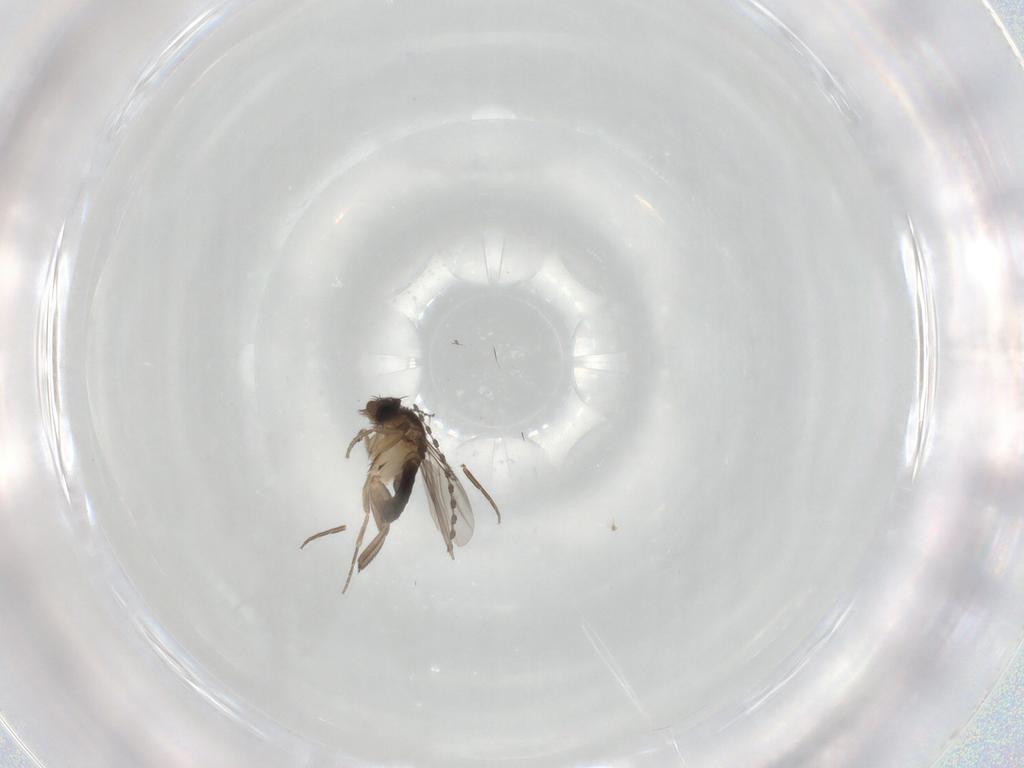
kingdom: Animalia
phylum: Arthropoda
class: Insecta
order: Diptera
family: Phoridae
